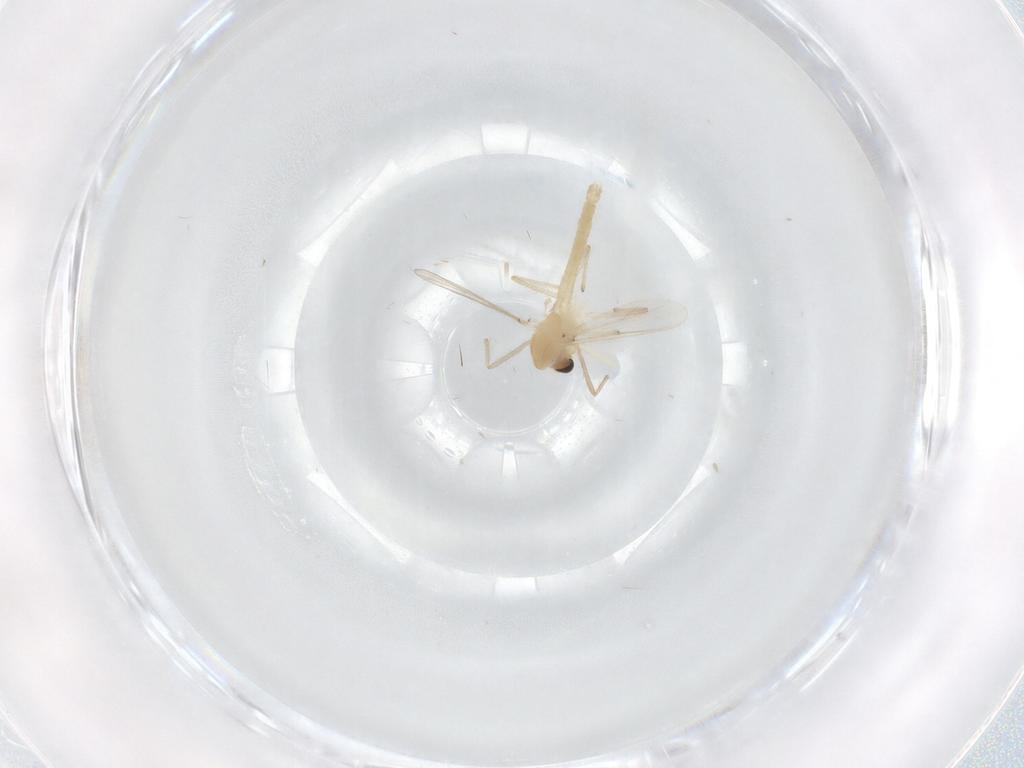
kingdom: Animalia
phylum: Arthropoda
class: Insecta
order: Diptera
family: Chironomidae
